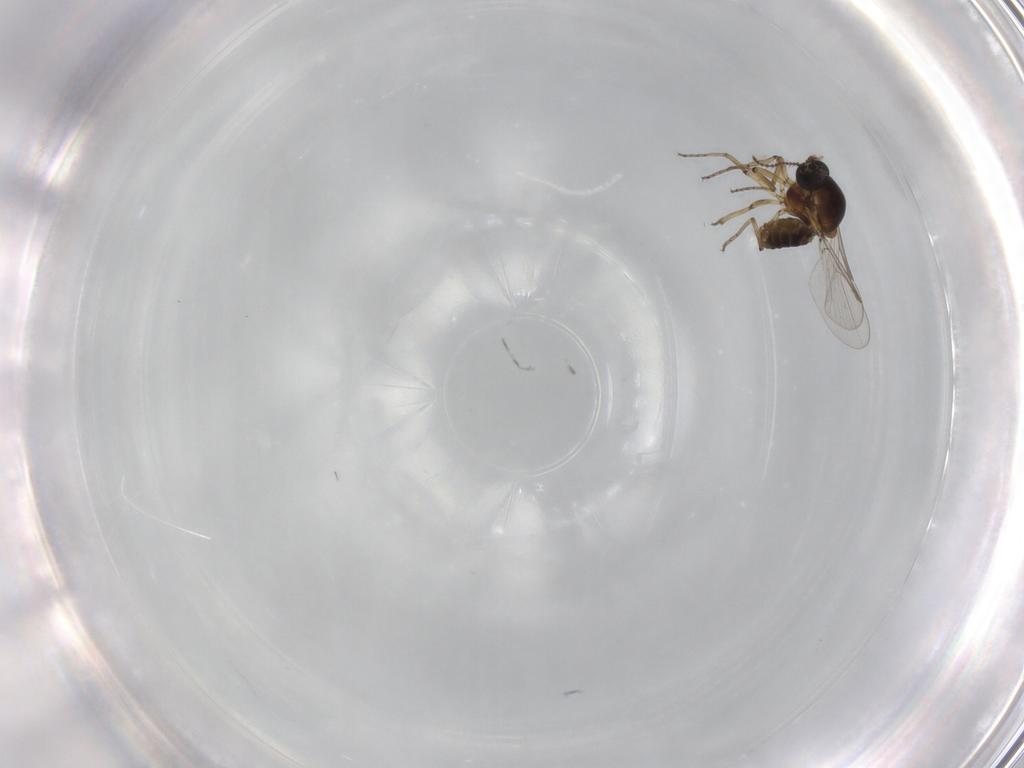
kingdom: Animalia
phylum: Arthropoda
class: Insecta
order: Diptera
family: Ceratopogonidae
